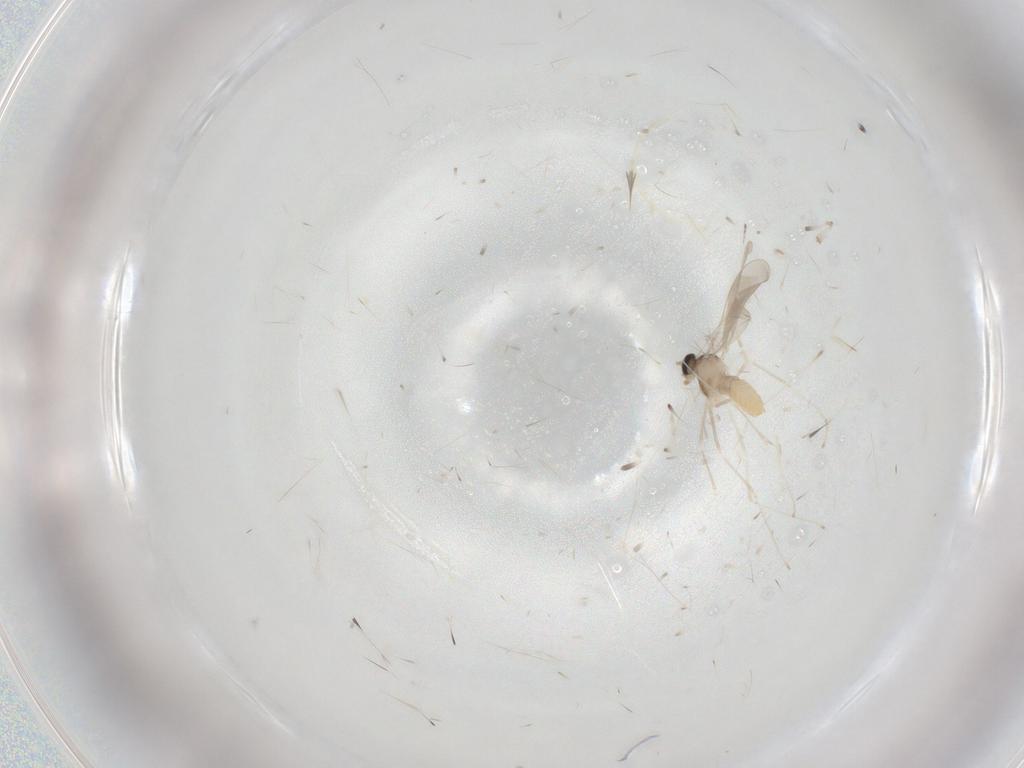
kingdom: Animalia
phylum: Arthropoda
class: Insecta
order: Diptera
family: Cecidomyiidae
